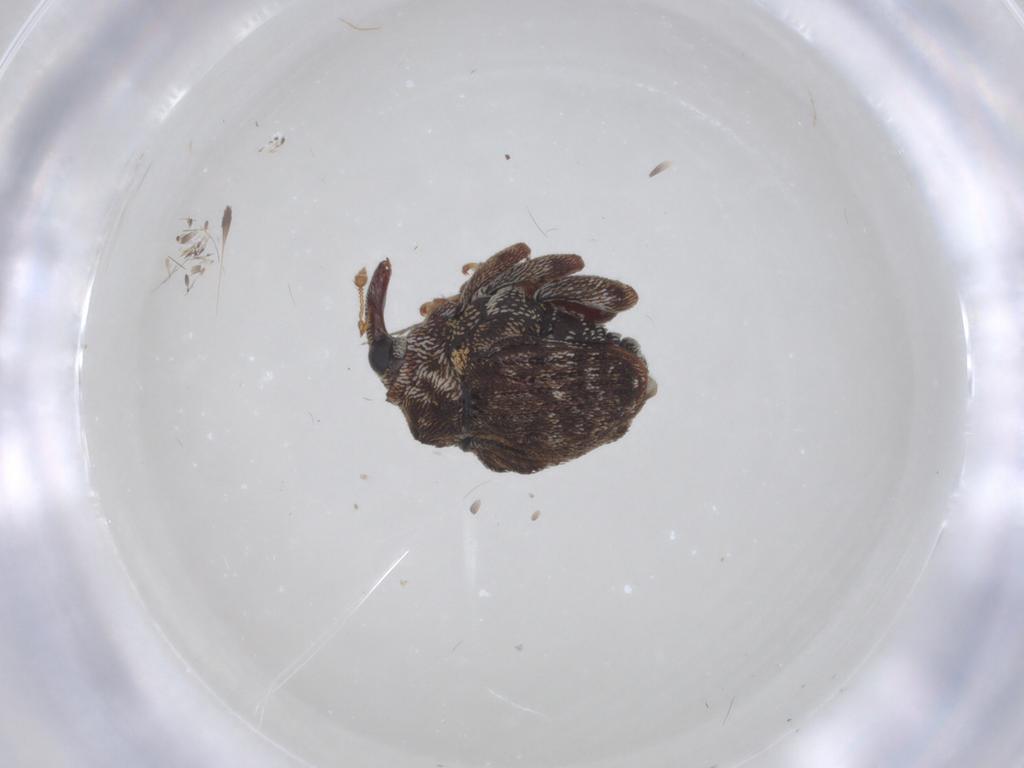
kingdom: Animalia
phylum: Arthropoda
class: Insecta
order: Coleoptera
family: Curculionidae
